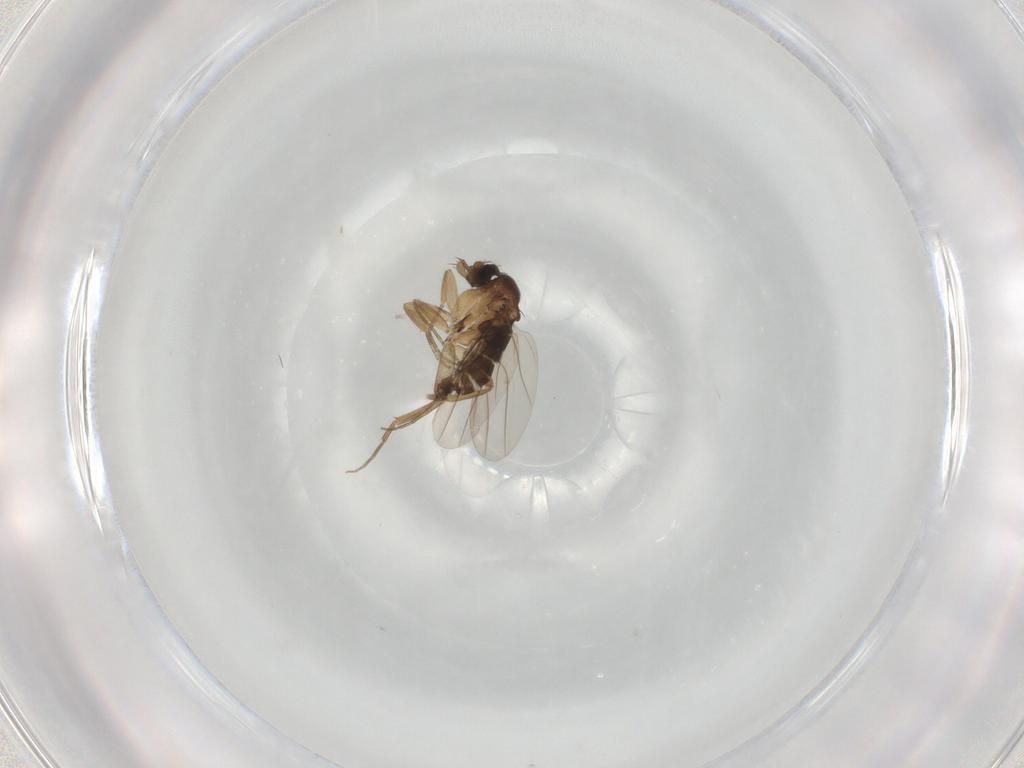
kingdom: Animalia
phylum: Arthropoda
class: Insecta
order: Diptera
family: Phoridae
